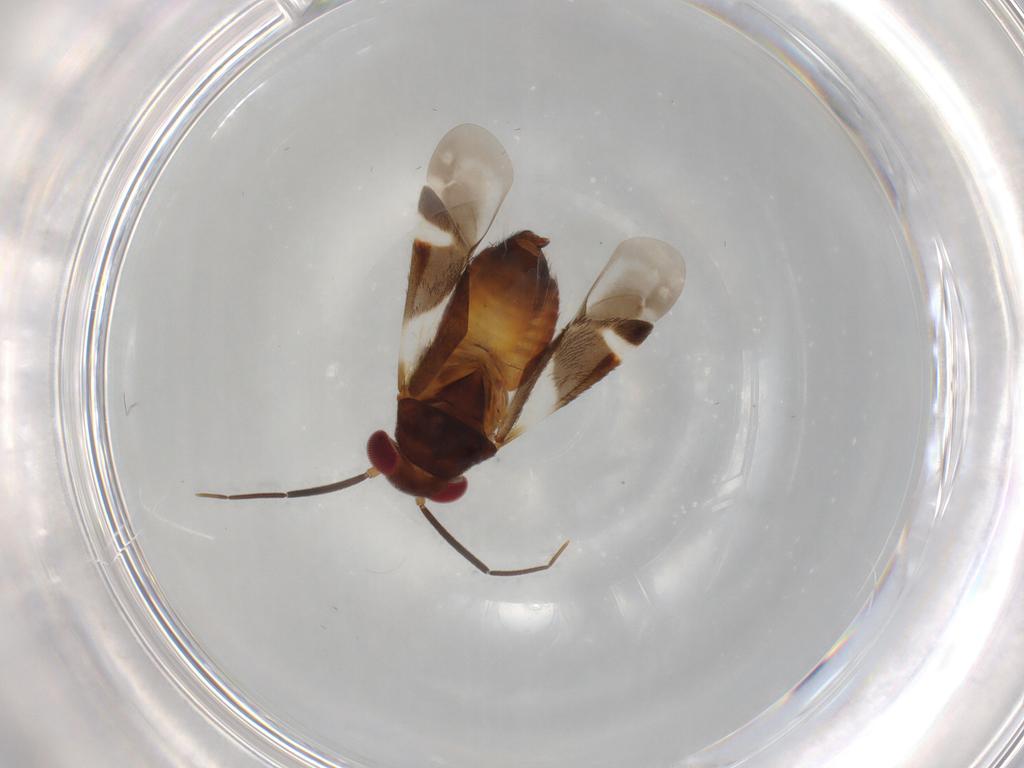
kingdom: Animalia
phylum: Arthropoda
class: Insecta
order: Hemiptera
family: Miridae
